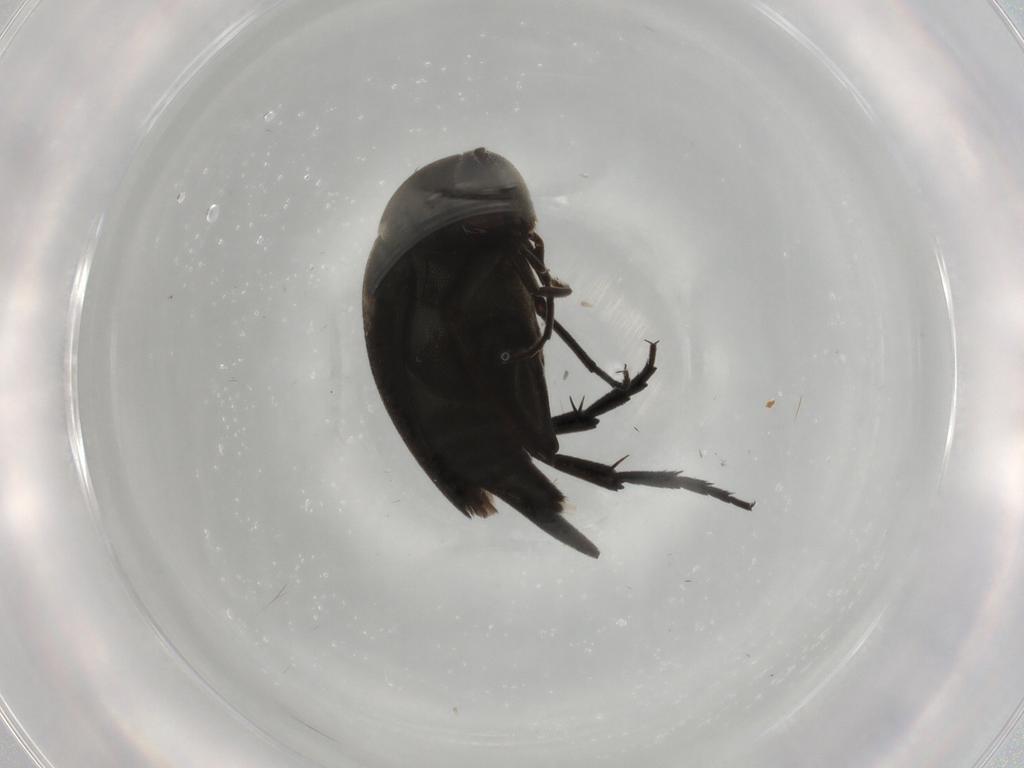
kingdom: Animalia
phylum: Arthropoda
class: Insecta
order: Coleoptera
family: Mordellidae
